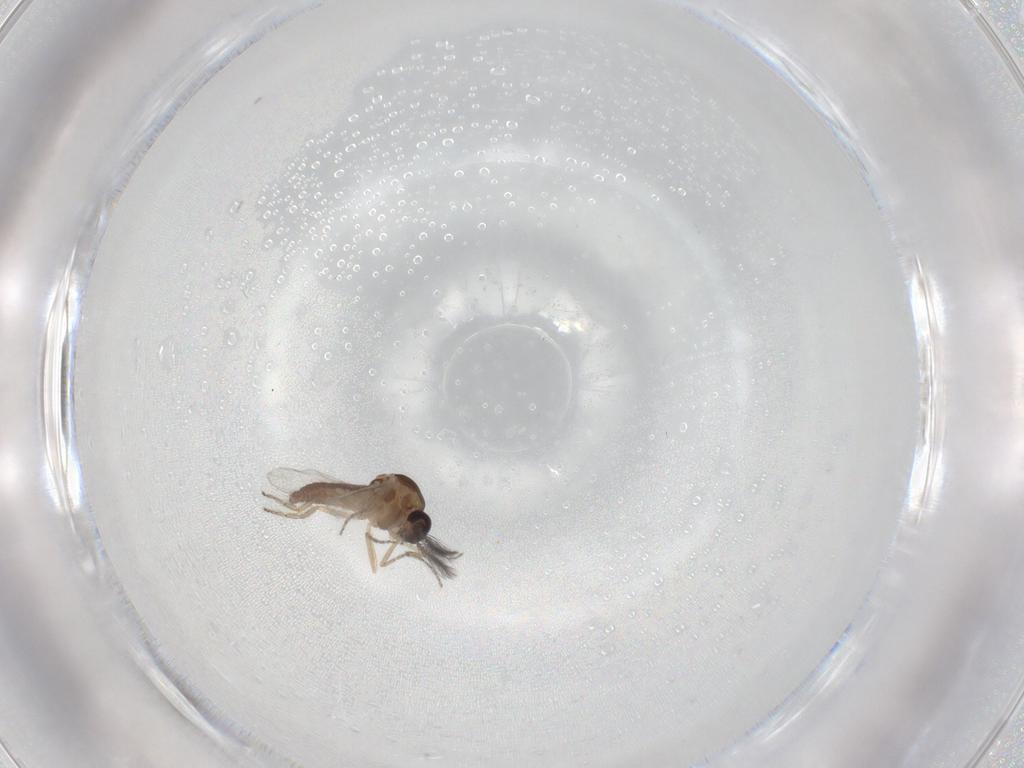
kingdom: Animalia
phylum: Arthropoda
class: Insecta
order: Diptera
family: Ceratopogonidae
